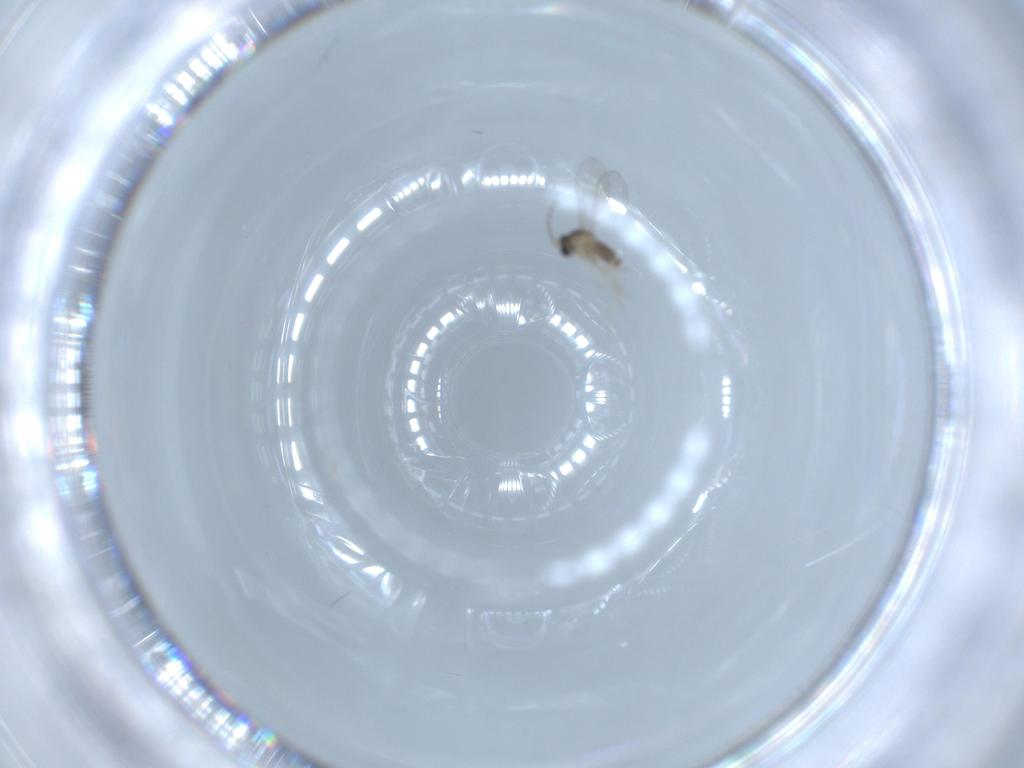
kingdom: Animalia
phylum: Arthropoda
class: Insecta
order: Diptera
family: Cecidomyiidae
